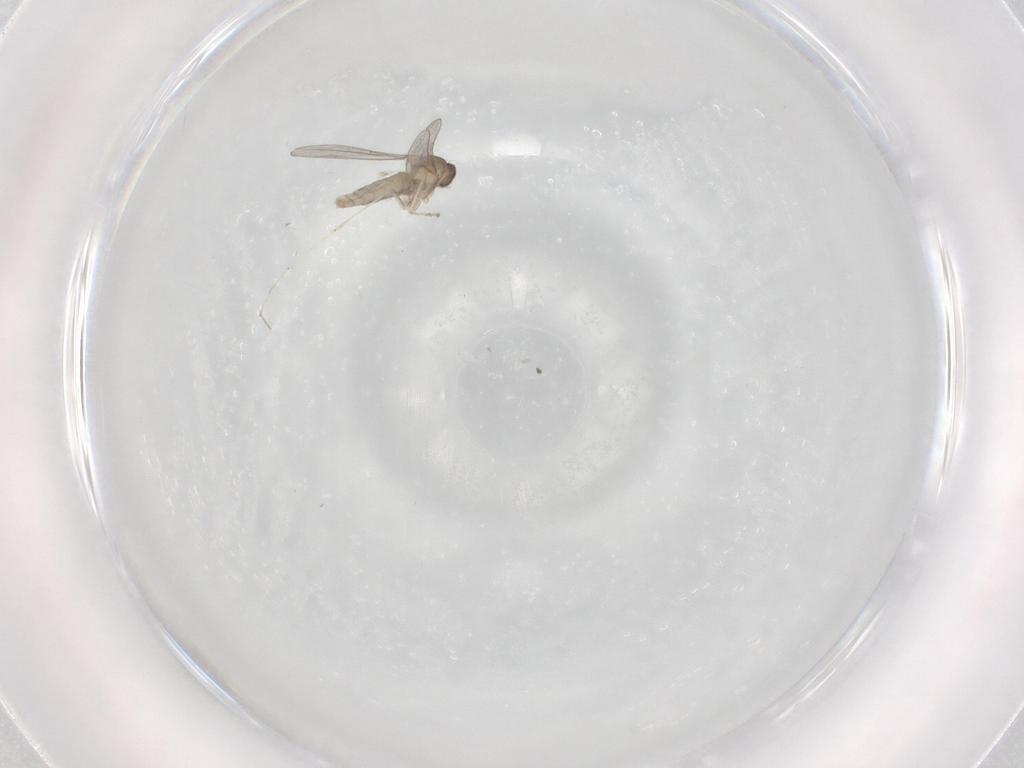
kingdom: Animalia
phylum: Arthropoda
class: Insecta
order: Diptera
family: Cecidomyiidae
